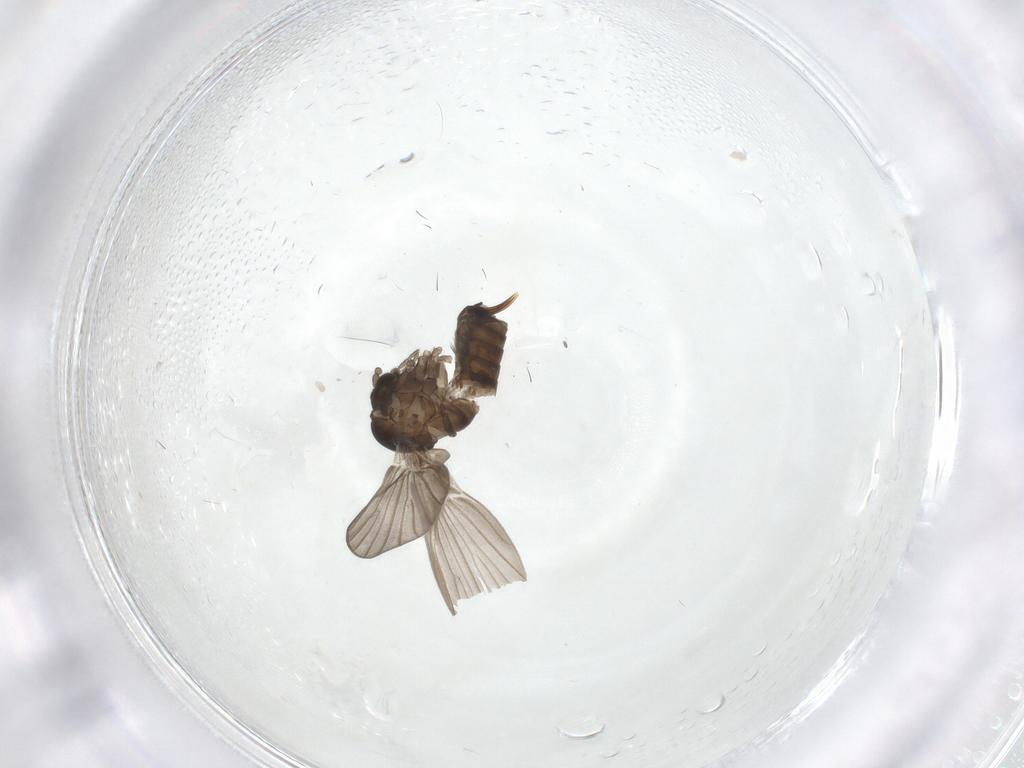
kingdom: Animalia
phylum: Arthropoda
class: Insecta
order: Diptera
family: Psychodidae
